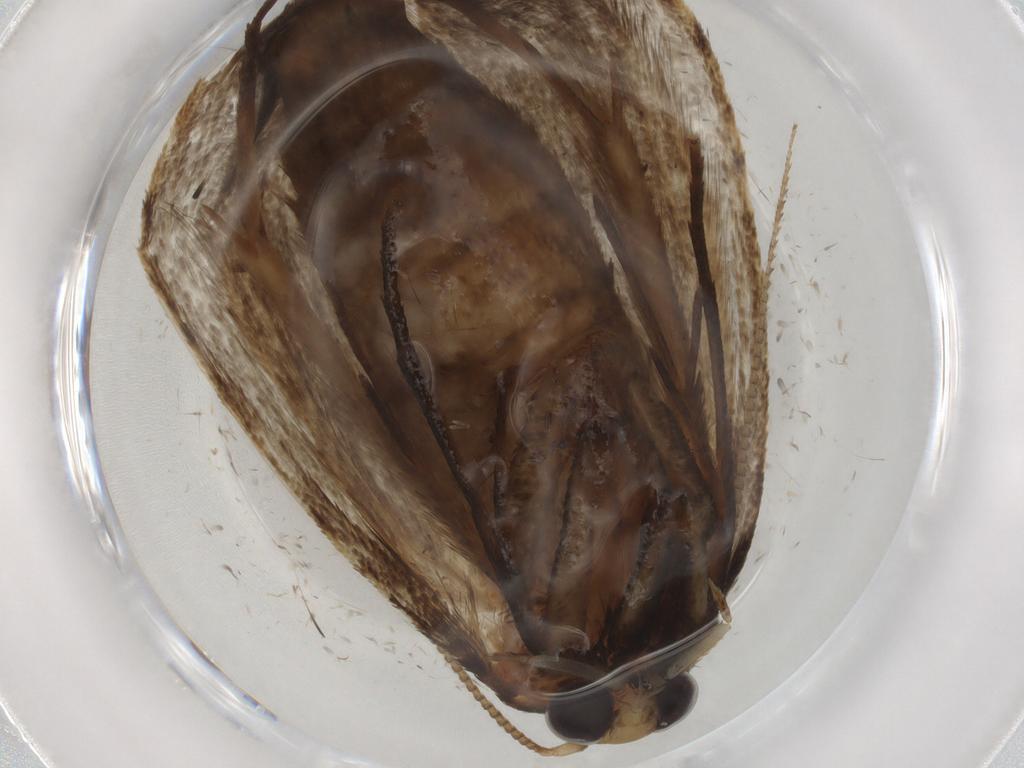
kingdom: Animalia
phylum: Arthropoda
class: Insecta
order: Lepidoptera
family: Tineidae
